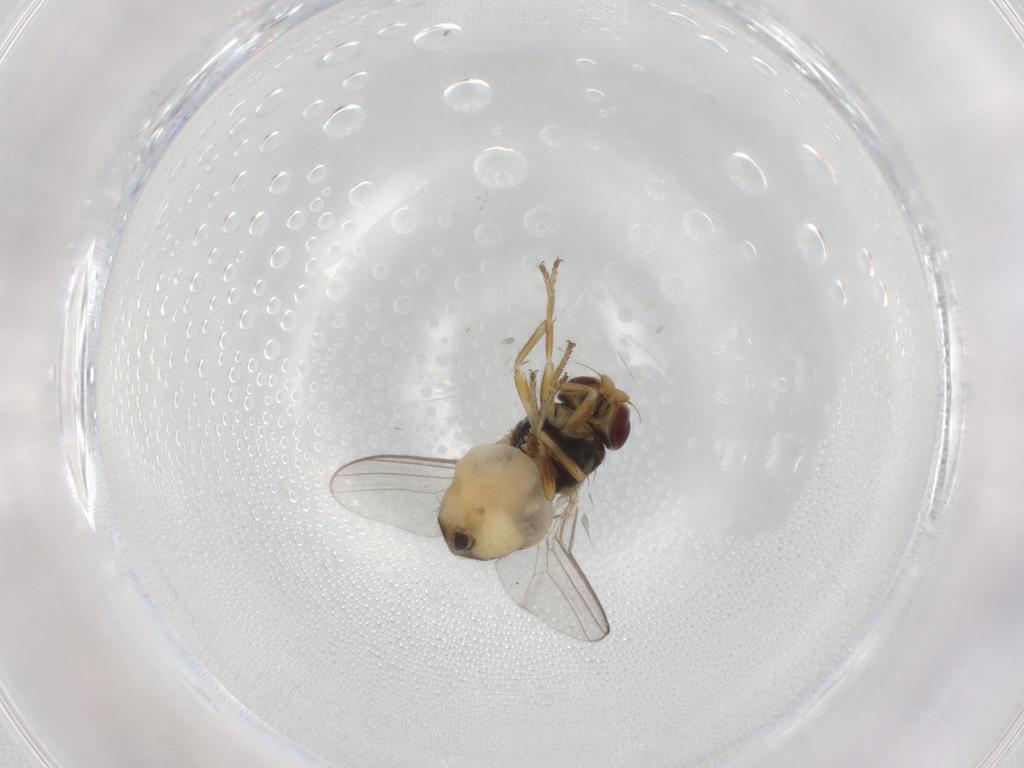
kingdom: Animalia
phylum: Arthropoda
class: Insecta
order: Diptera
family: Chloropidae
